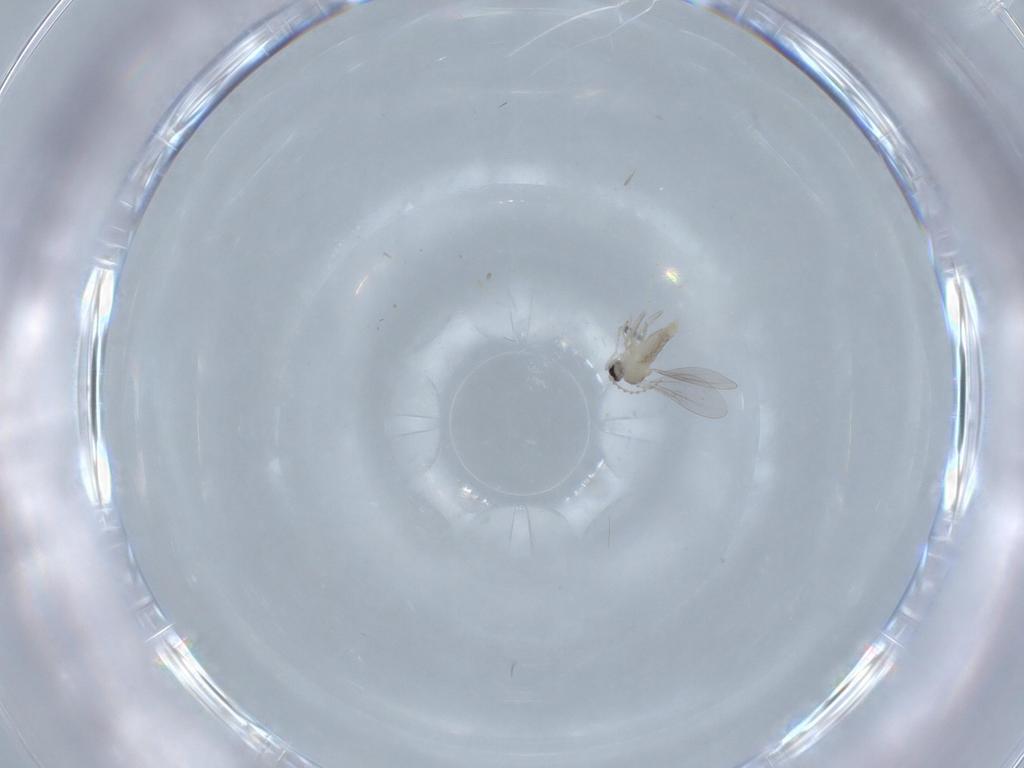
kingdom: Animalia
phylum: Arthropoda
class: Insecta
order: Diptera
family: Cecidomyiidae
